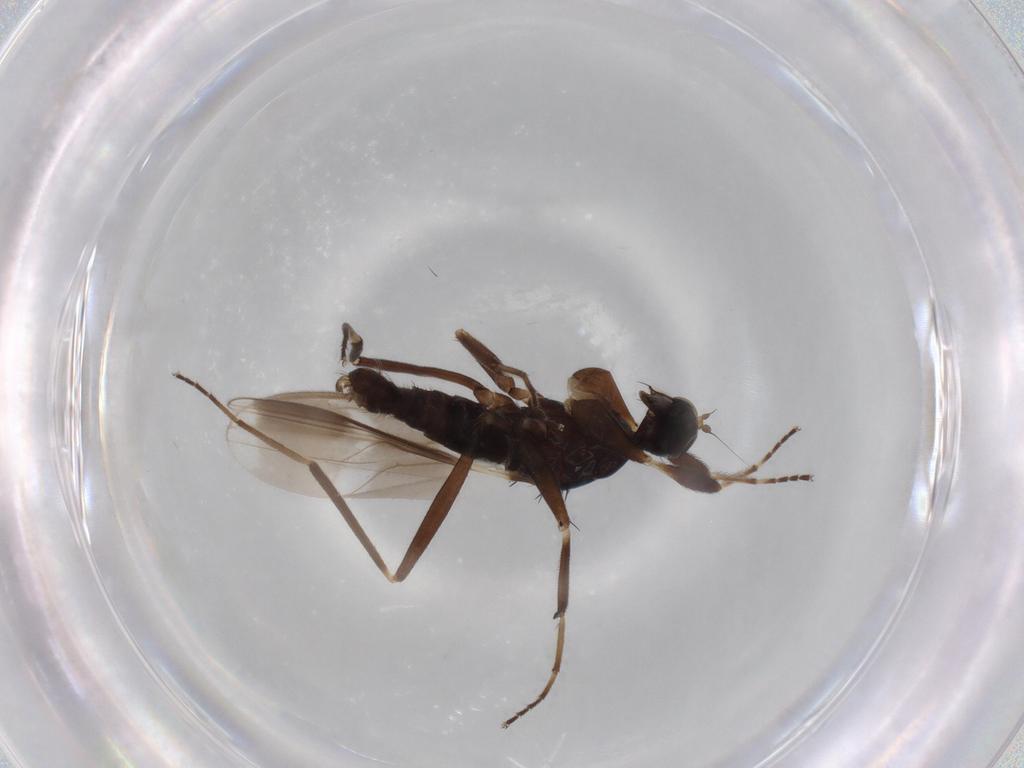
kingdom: Animalia
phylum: Arthropoda
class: Insecta
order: Diptera
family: Hybotidae
